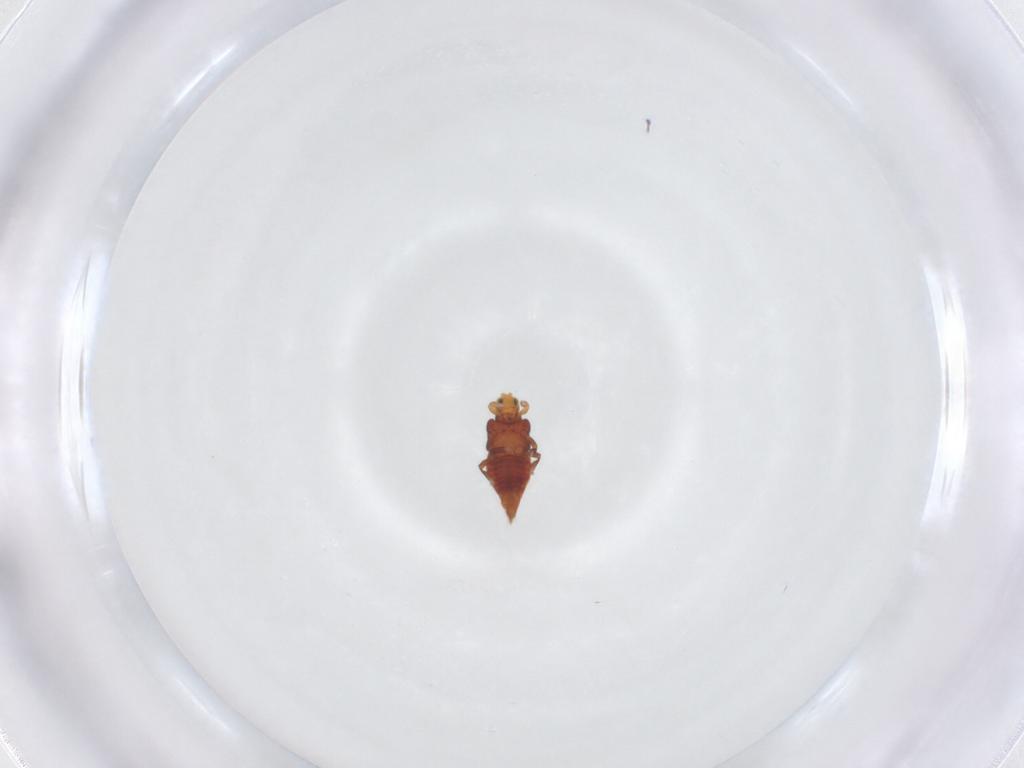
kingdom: Animalia
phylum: Arthropoda
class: Insecta
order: Thysanoptera
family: Thripidae
